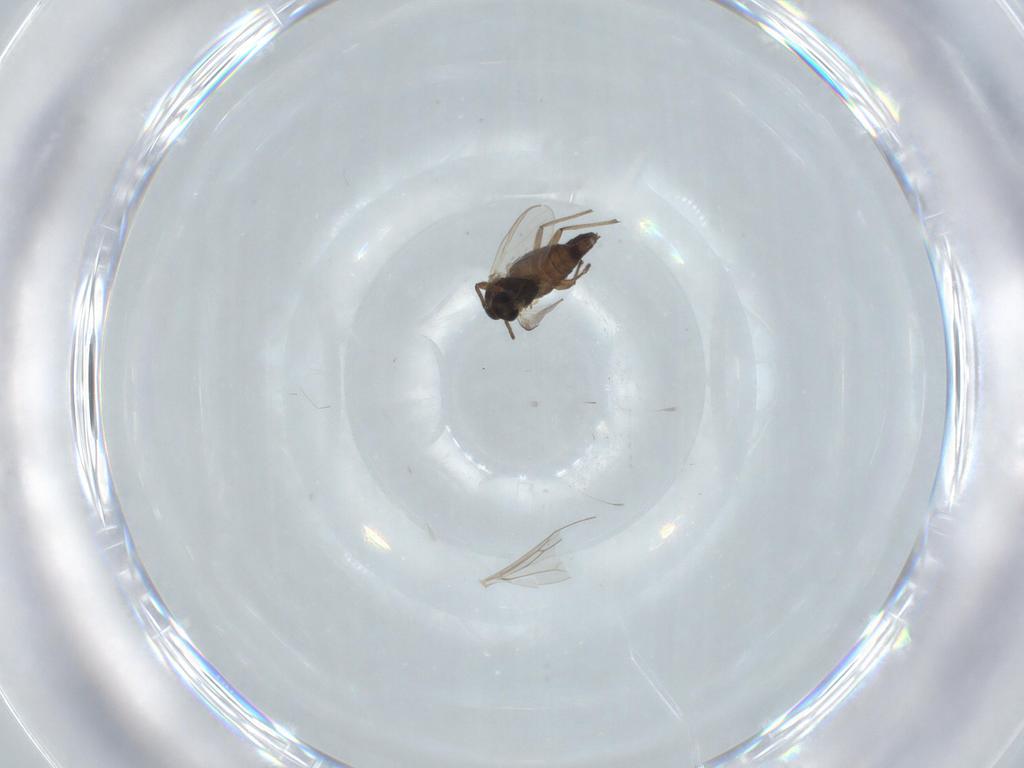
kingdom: Animalia
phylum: Arthropoda
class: Insecta
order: Diptera
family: Chironomidae
